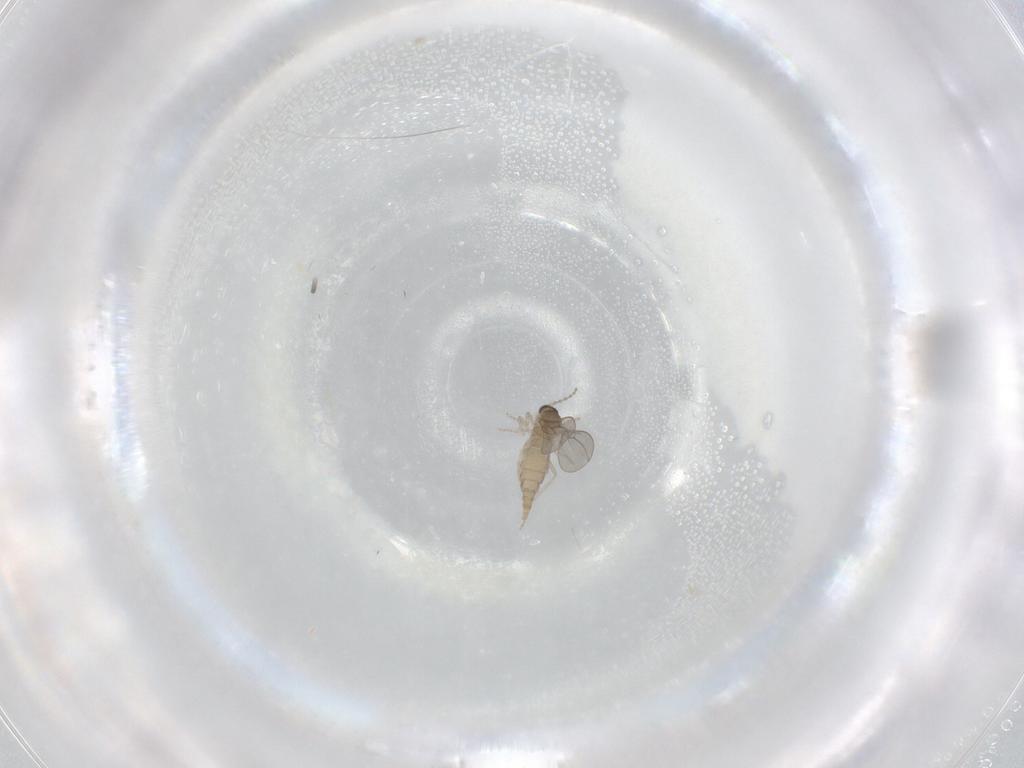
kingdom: Animalia
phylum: Arthropoda
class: Insecta
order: Diptera
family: Cecidomyiidae
